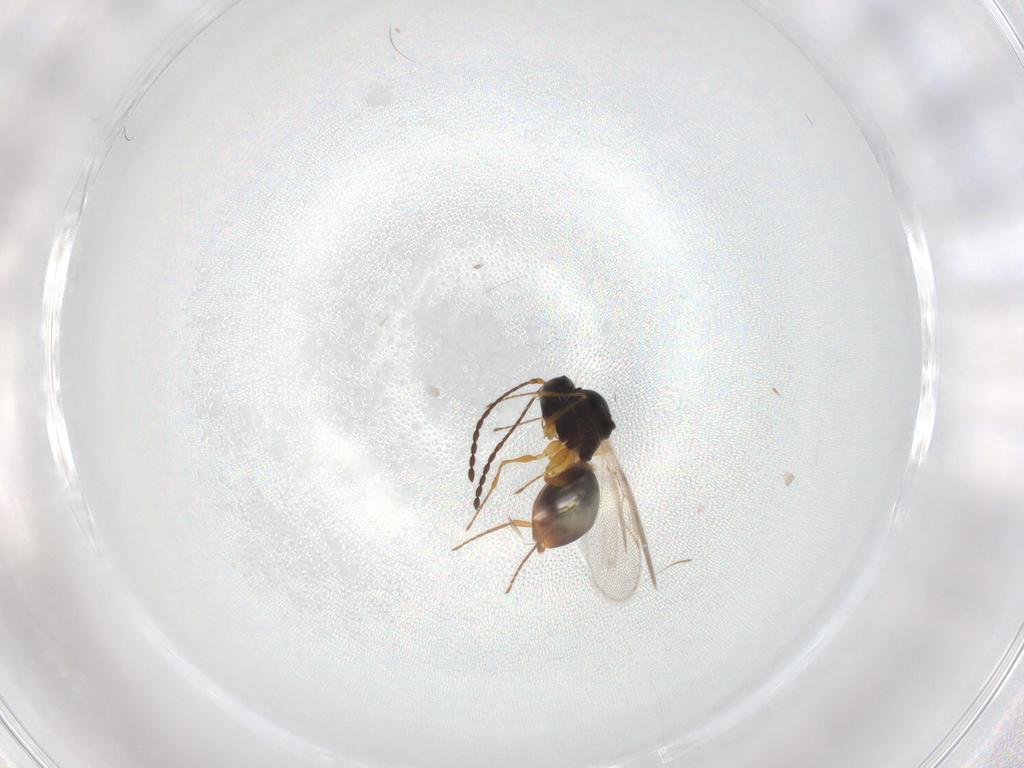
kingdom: Animalia
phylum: Arthropoda
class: Insecta
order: Hymenoptera
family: Figitidae
